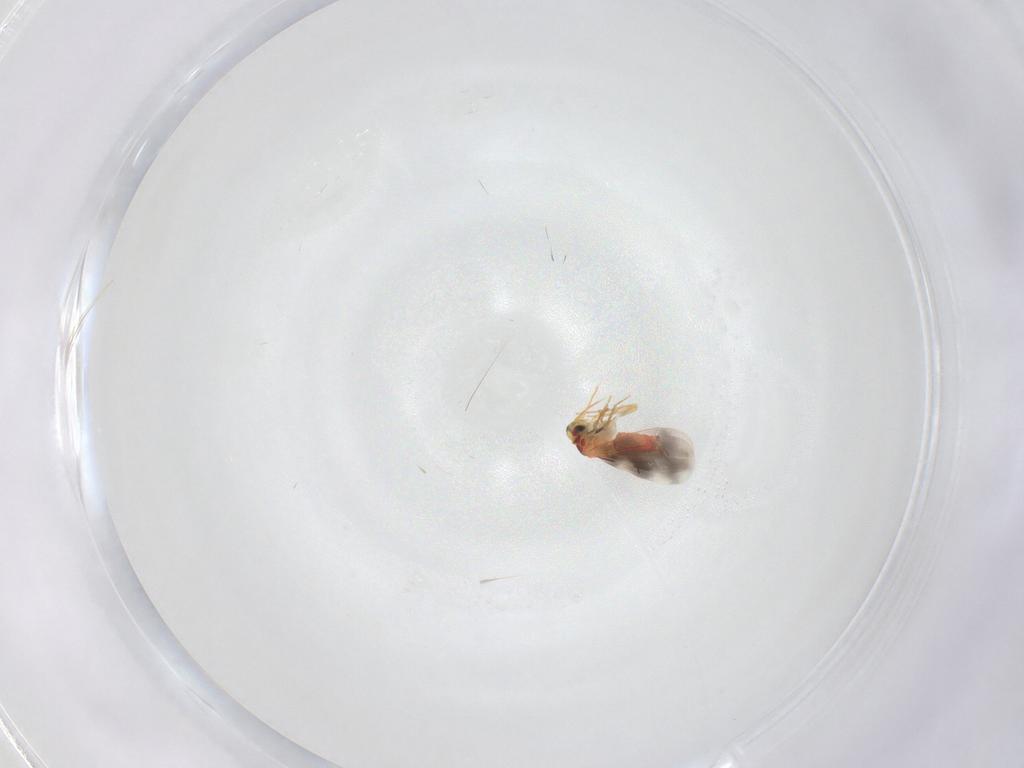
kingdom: Animalia
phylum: Arthropoda
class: Insecta
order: Hemiptera
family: Aleyrodidae
